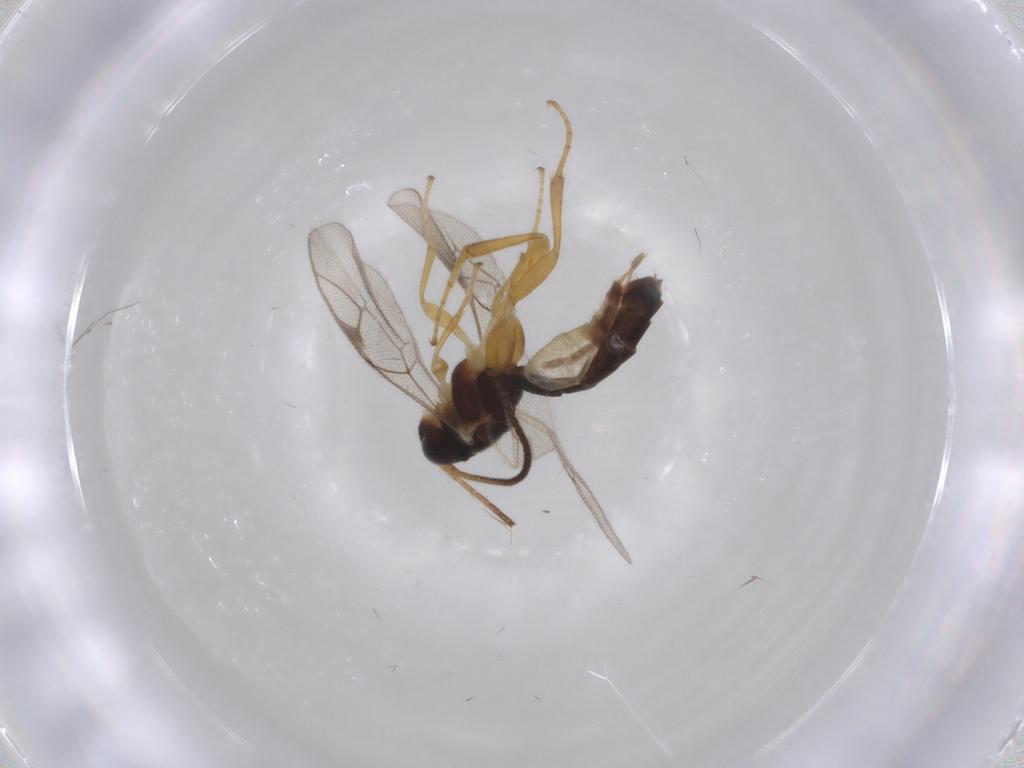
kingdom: Animalia
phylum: Arthropoda
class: Insecta
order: Hymenoptera
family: Ichneumonidae
